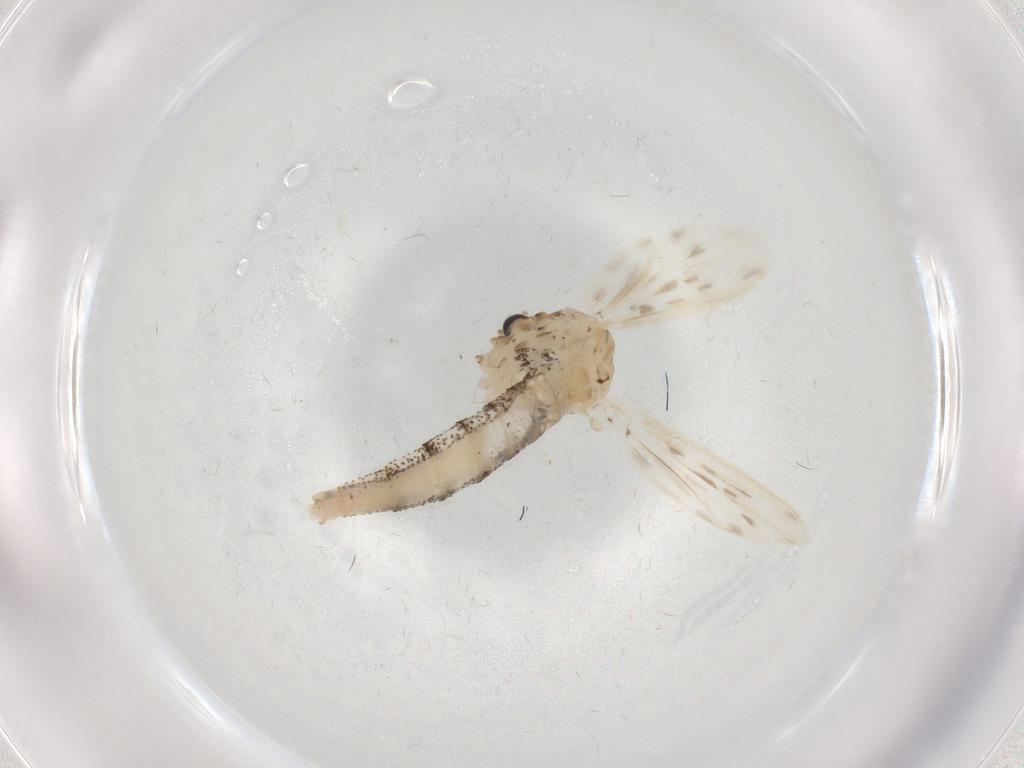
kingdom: Animalia
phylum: Arthropoda
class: Insecta
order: Diptera
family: Chaoboridae
